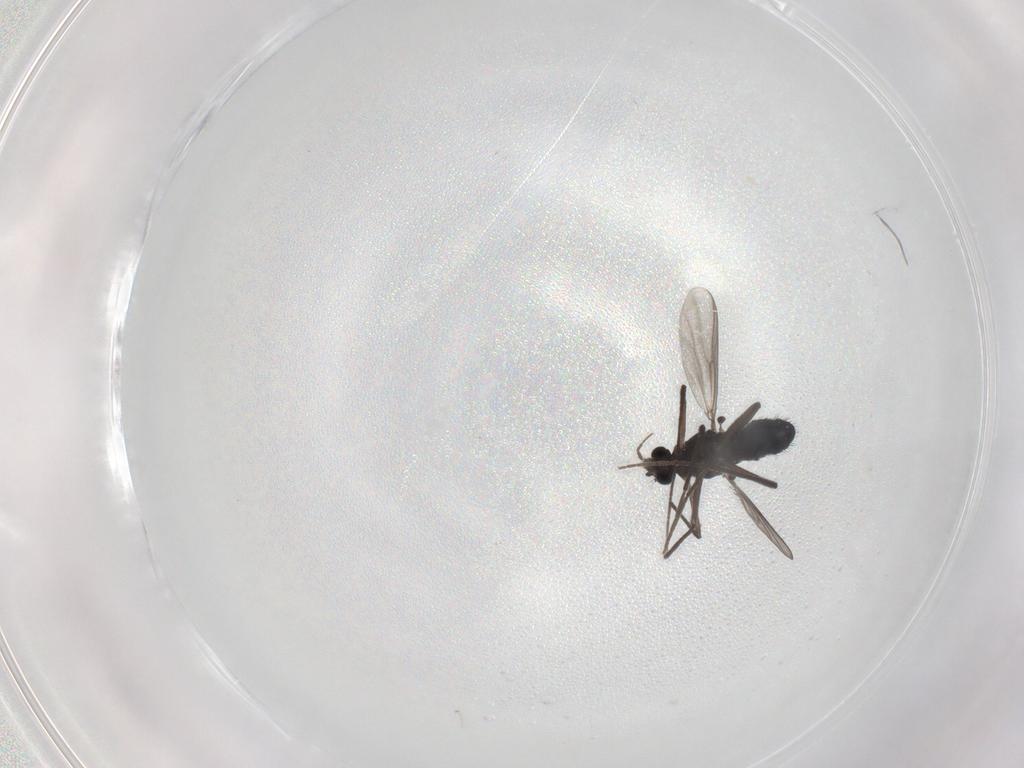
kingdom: Animalia
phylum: Arthropoda
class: Insecta
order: Diptera
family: Chironomidae
